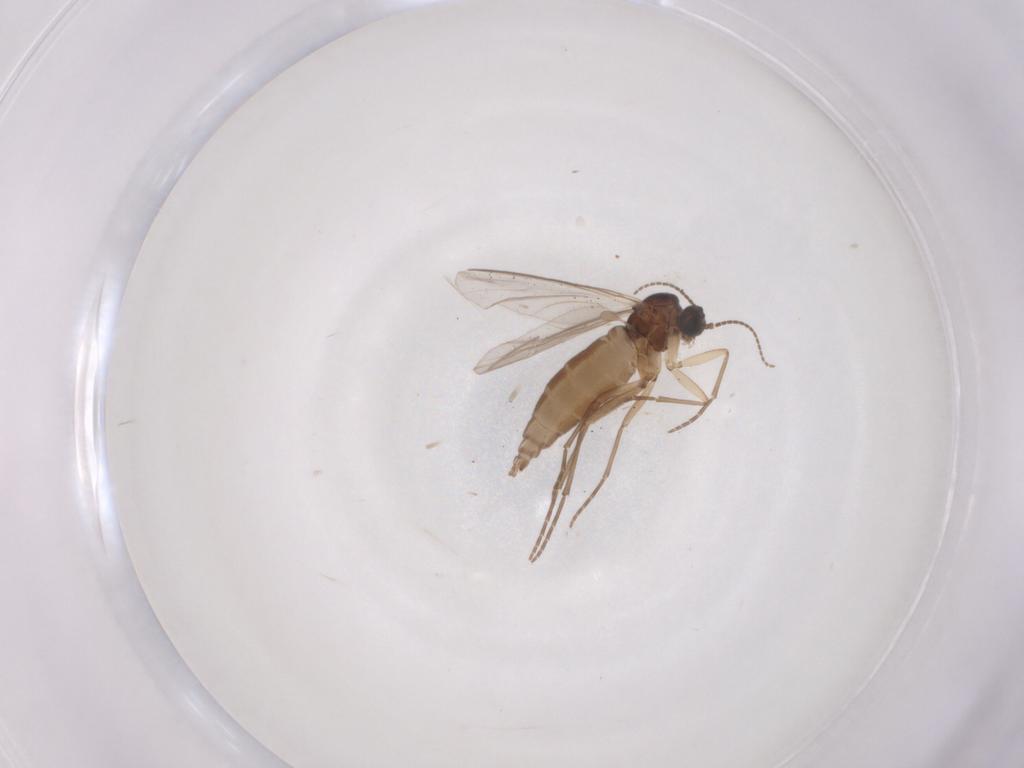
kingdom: Animalia
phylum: Arthropoda
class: Insecta
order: Diptera
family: Sciaridae
